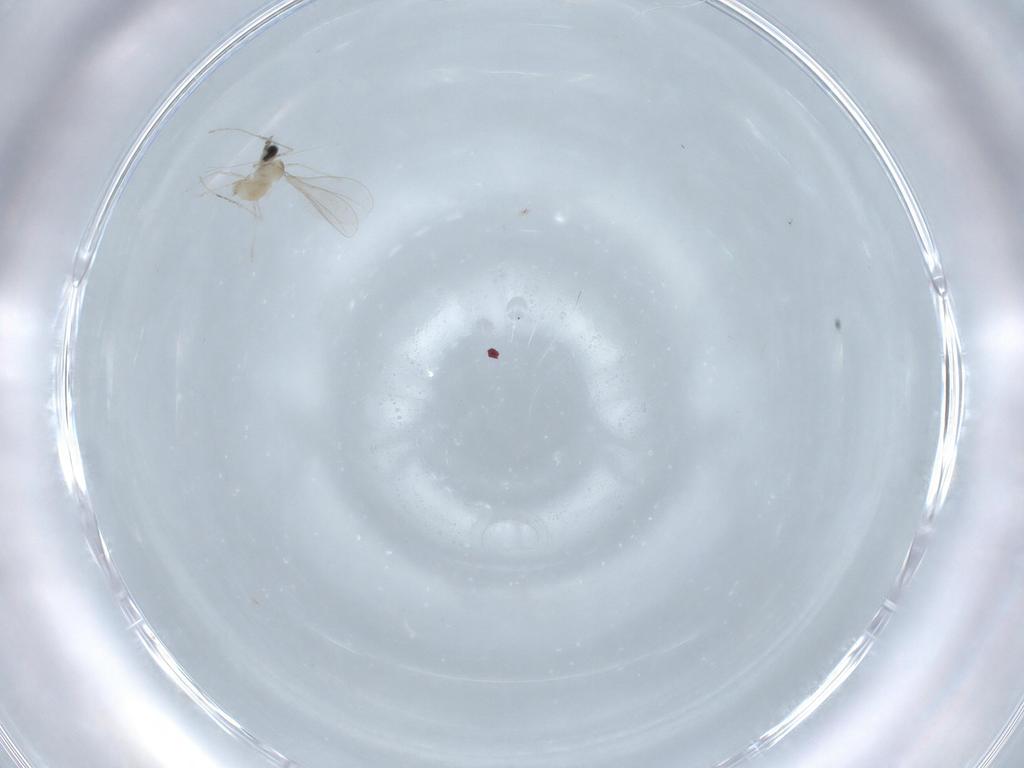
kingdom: Animalia
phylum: Arthropoda
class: Insecta
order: Diptera
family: Cecidomyiidae
